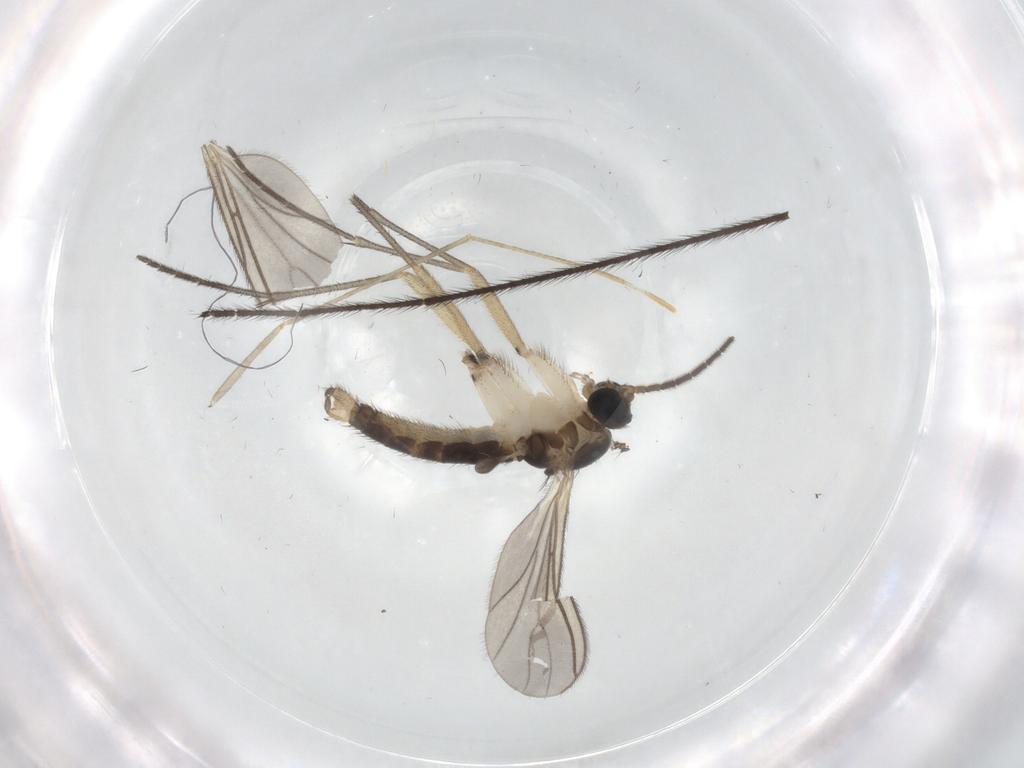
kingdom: Animalia
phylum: Arthropoda
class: Insecta
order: Diptera
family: Sciaridae
